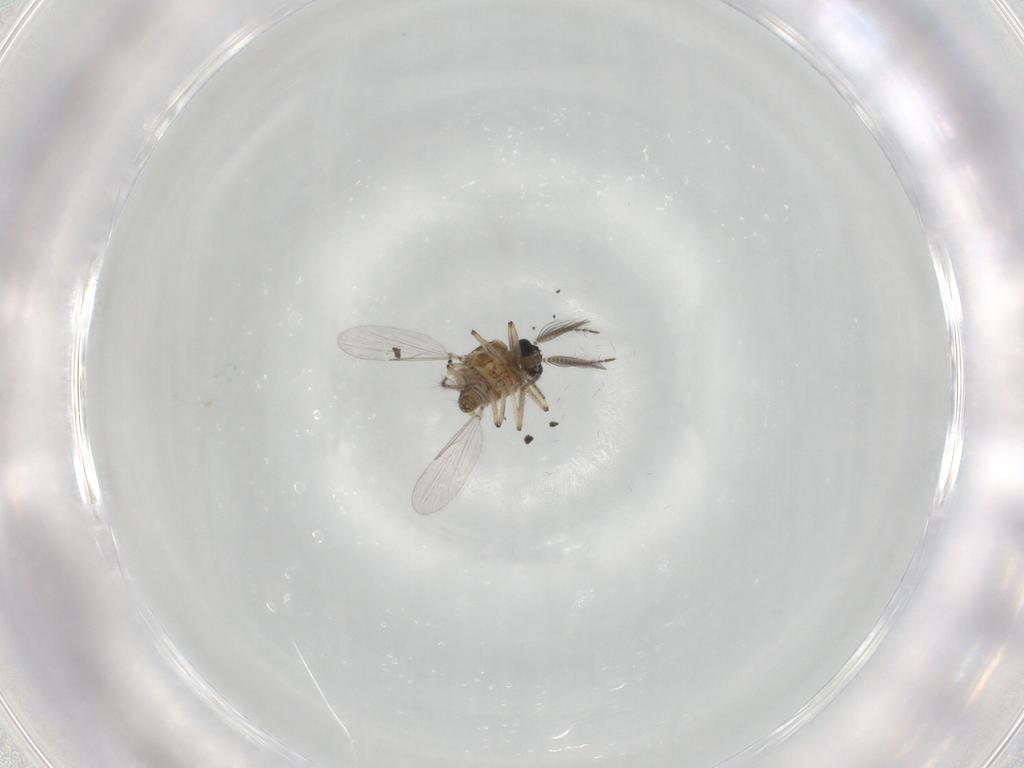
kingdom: Animalia
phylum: Arthropoda
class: Insecta
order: Diptera
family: Ceratopogonidae
